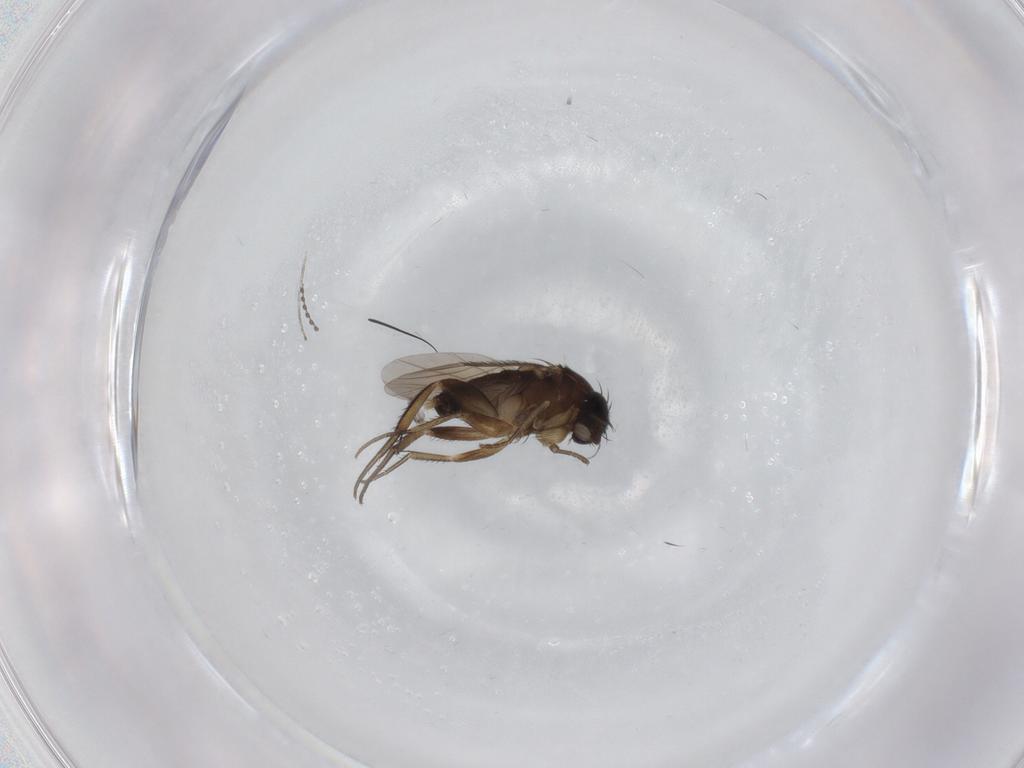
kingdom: Animalia
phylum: Arthropoda
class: Insecta
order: Diptera
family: Phoridae
